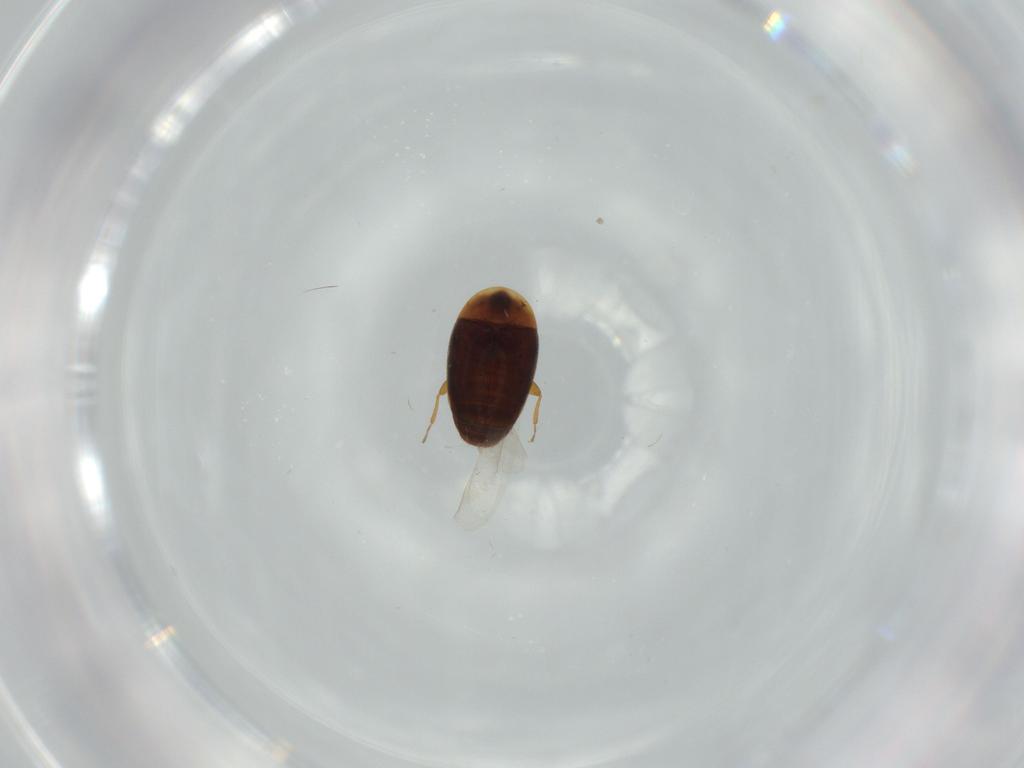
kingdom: Animalia
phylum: Arthropoda
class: Insecta
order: Coleoptera
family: Corylophidae
